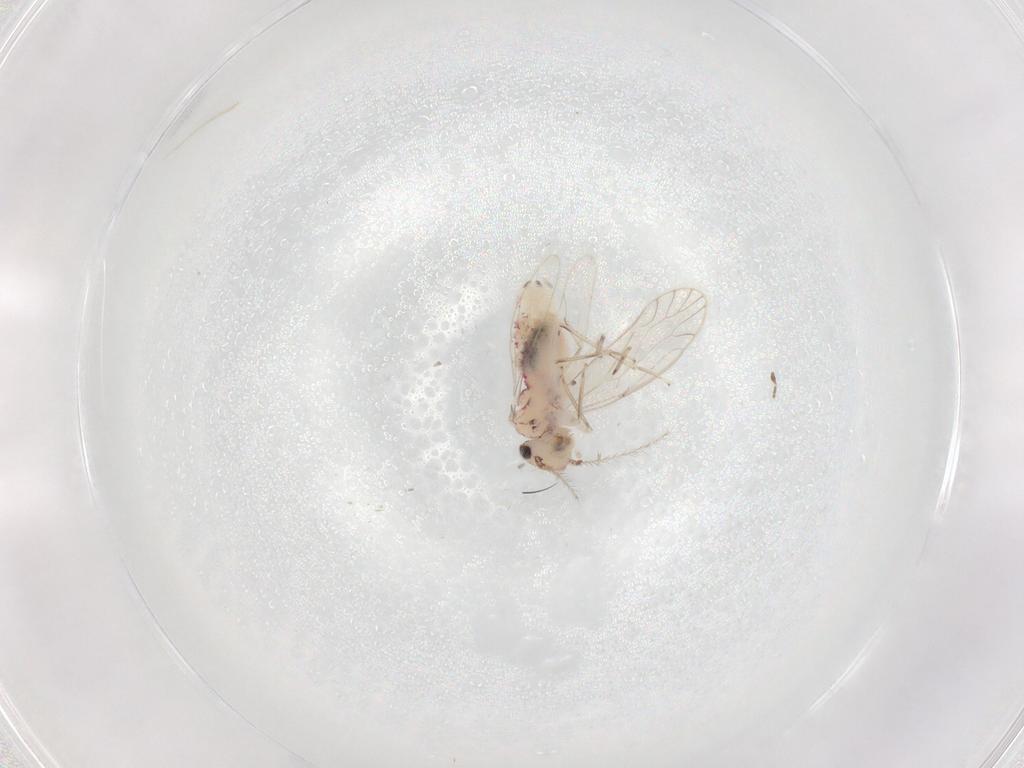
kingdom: Animalia
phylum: Arthropoda
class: Insecta
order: Psocodea
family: Caeciliusidae
